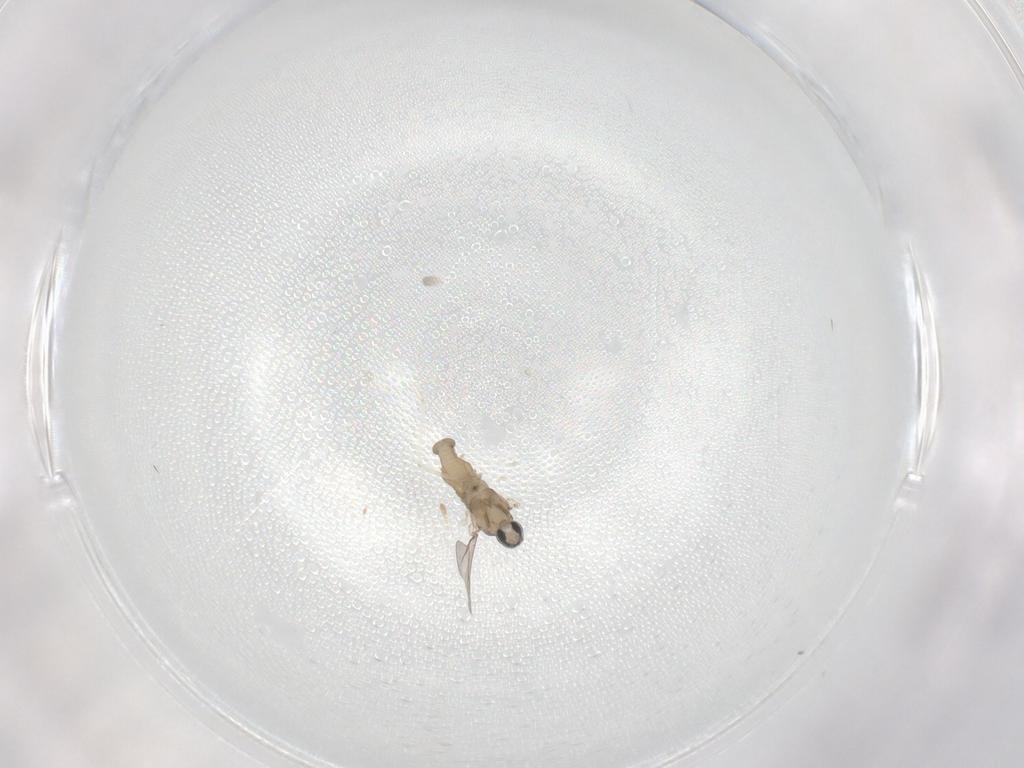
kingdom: Animalia
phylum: Arthropoda
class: Insecta
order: Diptera
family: Cecidomyiidae
